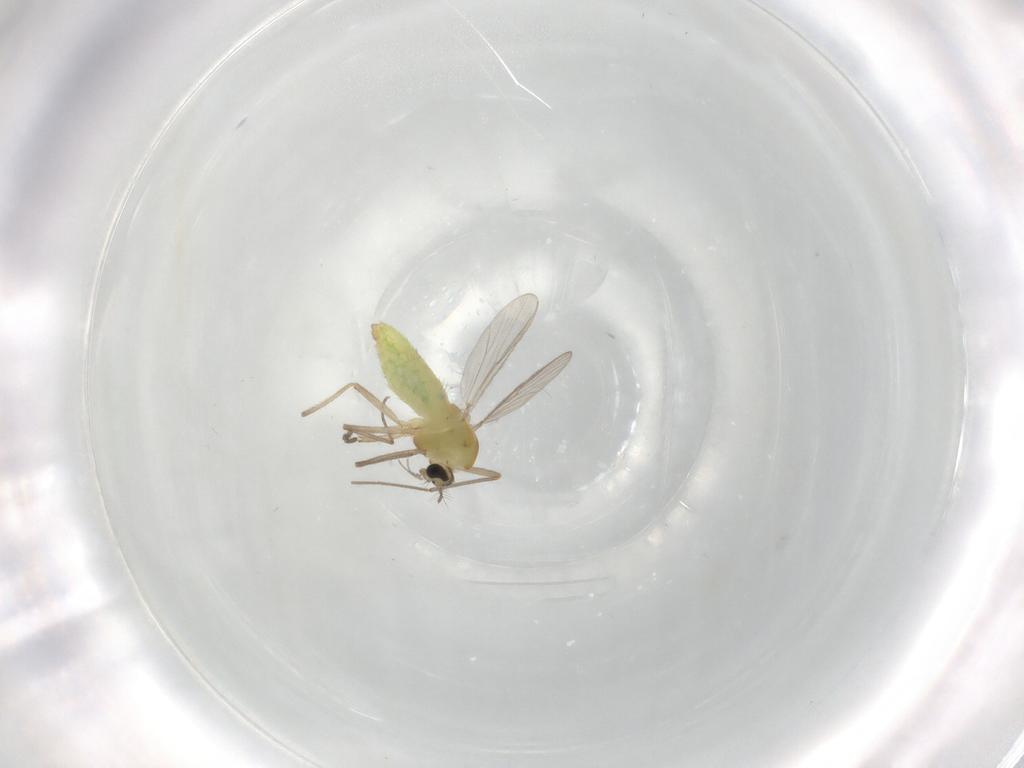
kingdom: Animalia
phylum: Arthropoda
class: Insecta
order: Diptera
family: Chironomidae
